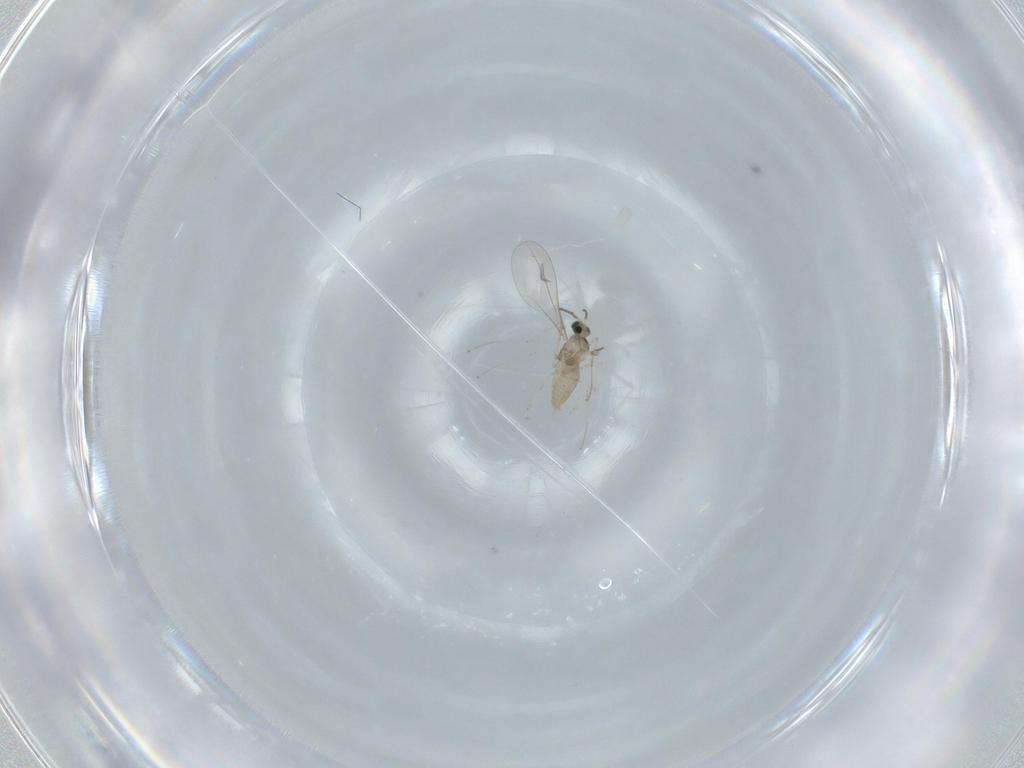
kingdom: Animalia
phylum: Arthropoda
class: Insecta
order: Diptera
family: Cecidomyiidae
